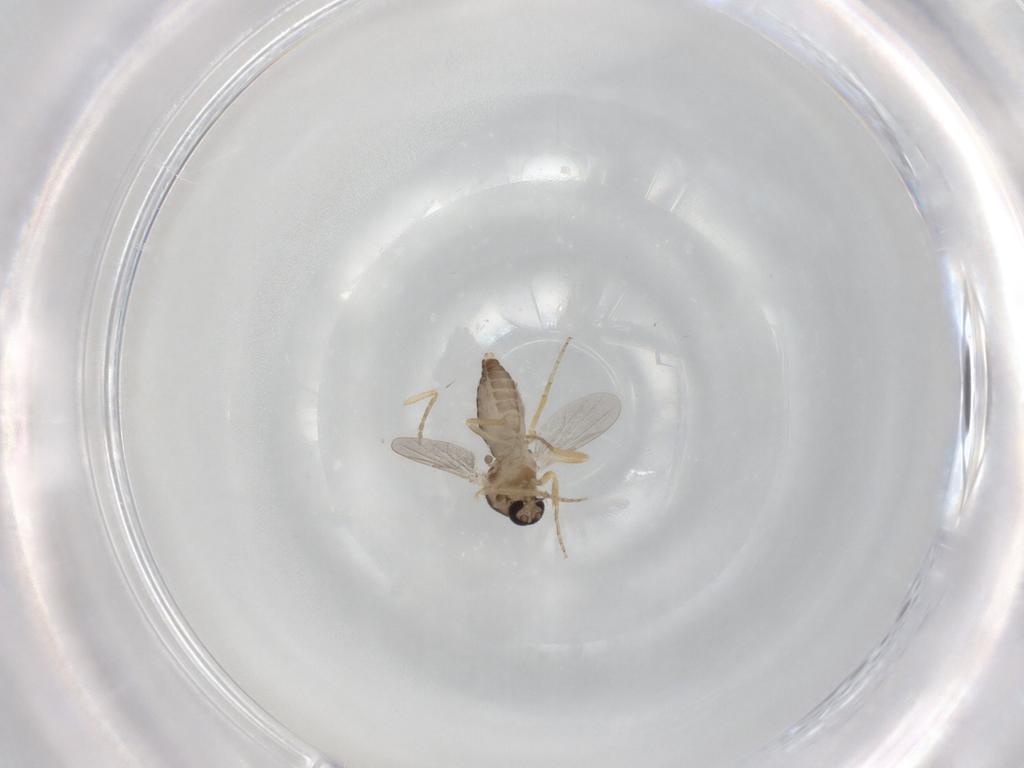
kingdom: Animalia
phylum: Arthropoda
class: Insecta
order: Diptera
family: Ceratopogonidae
